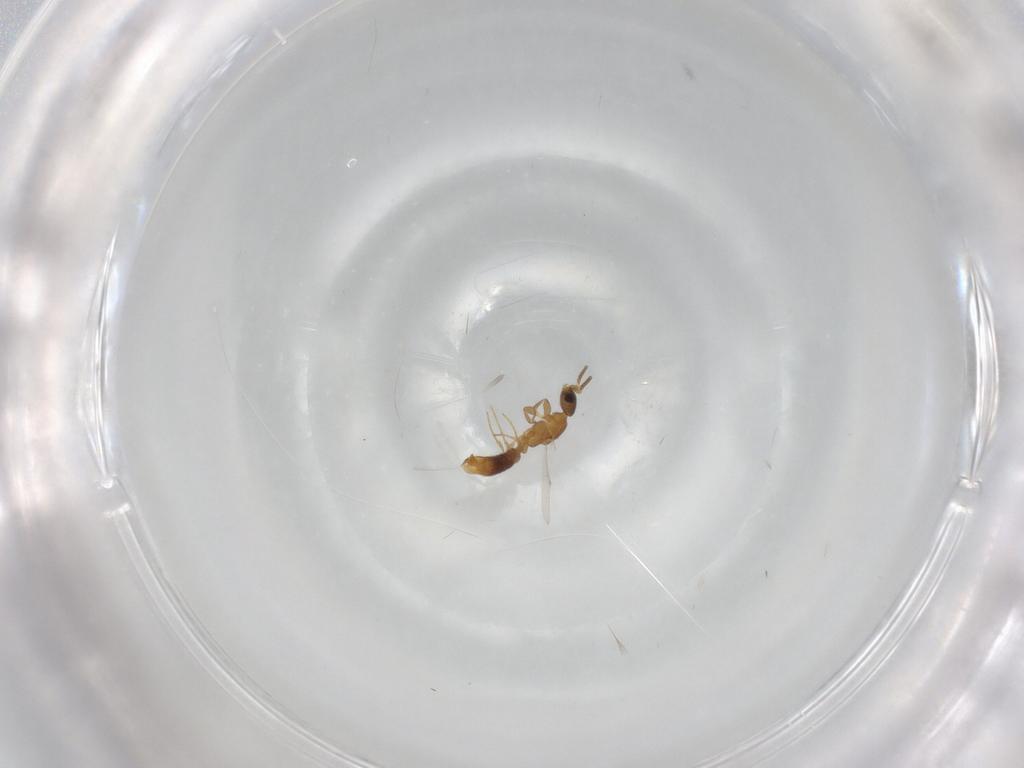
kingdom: Animalia
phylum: Arthropoda
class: Insecta
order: Hymenoptera
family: Formicidae
